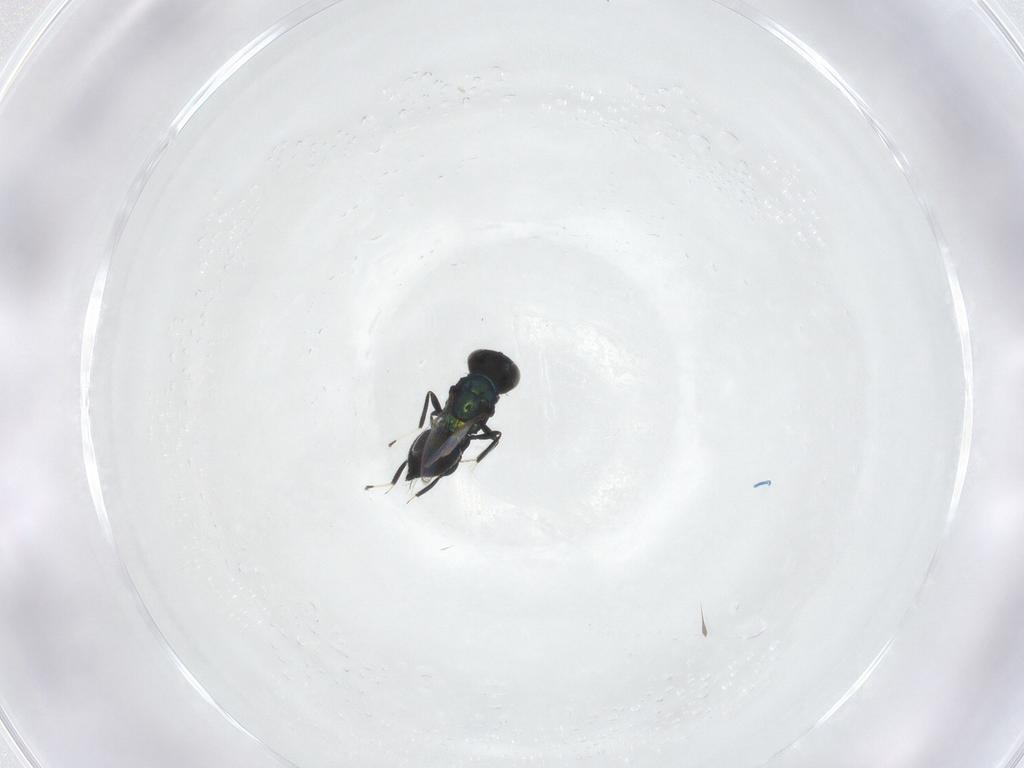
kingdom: Animalia
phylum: Arthropoda
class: Insecta
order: Hymenoptera
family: Eulophidae
